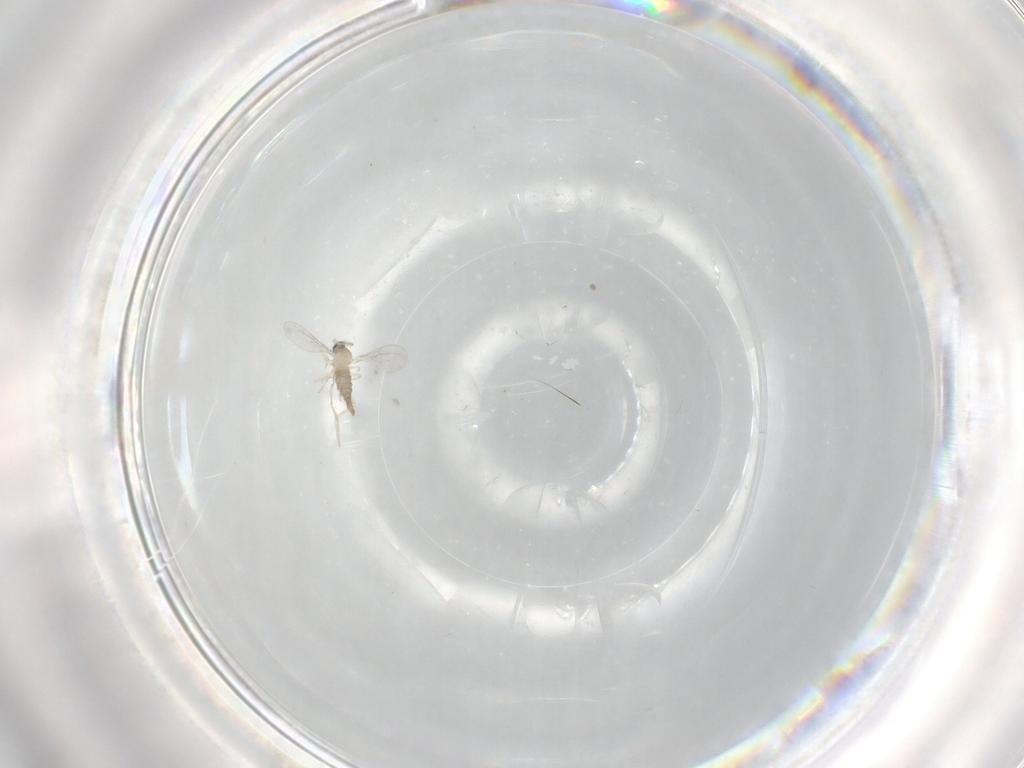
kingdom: Animalia
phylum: Arthropoda
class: Insecta
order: Diptera
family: Cecidomyiidae
